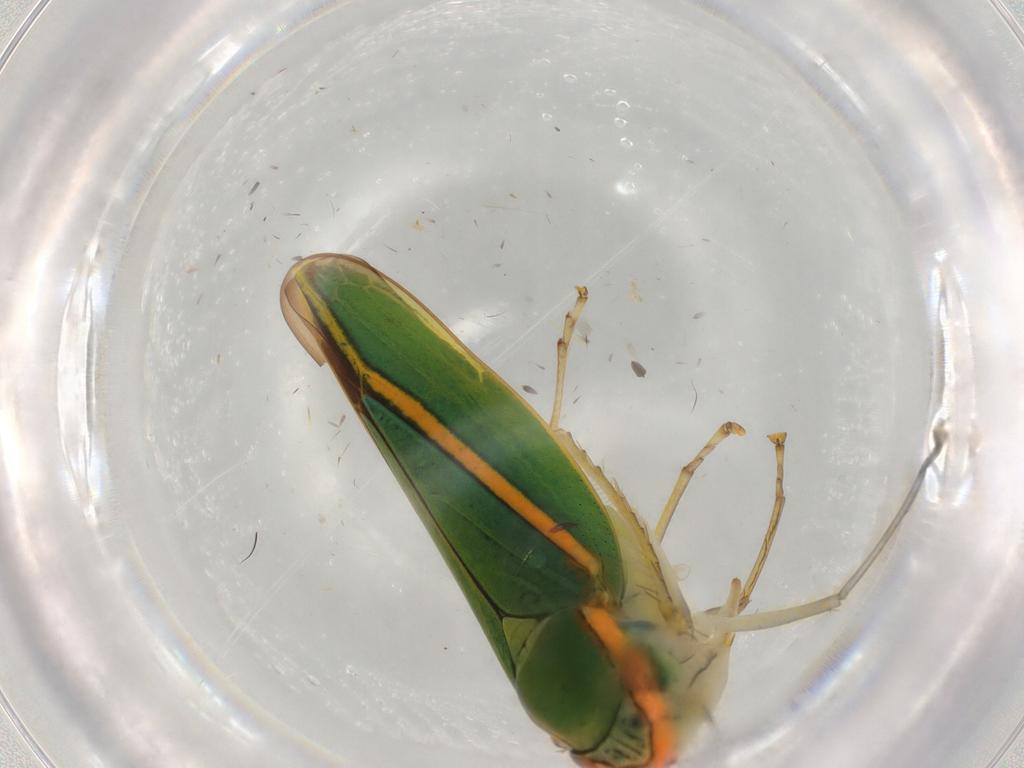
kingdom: Animalia
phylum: Arthropoda
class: Insecta
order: Hemiptera
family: Cicadellidae
